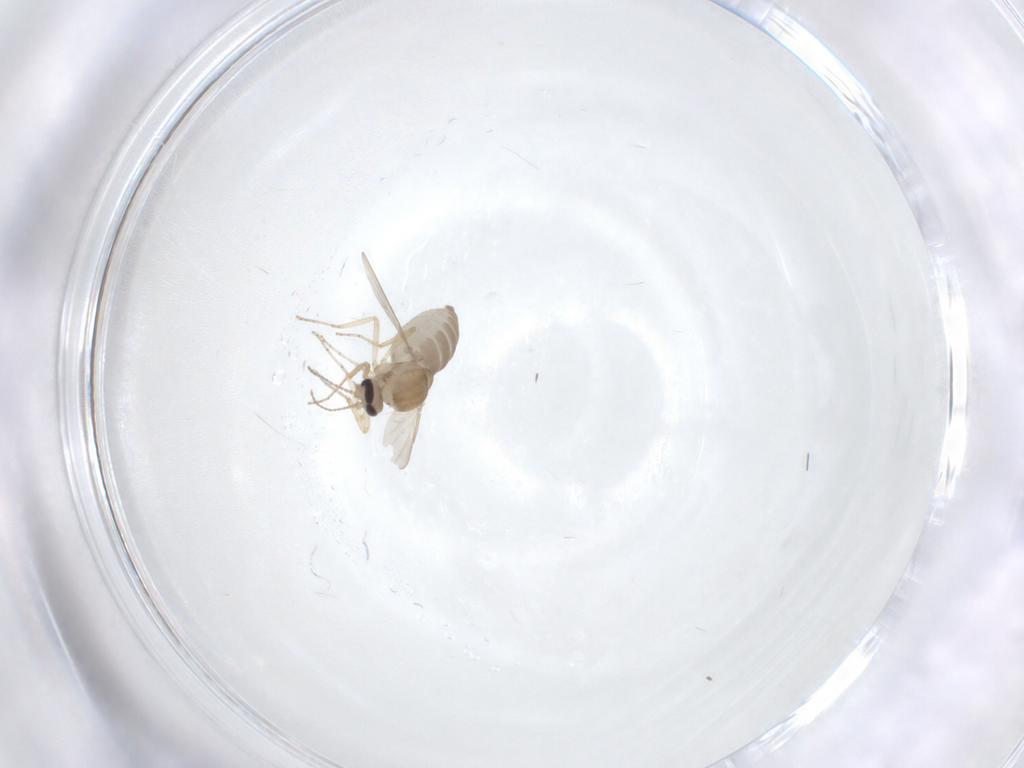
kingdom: Animalia
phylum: Arthropoda
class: Insecta
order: Diptera
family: Ceratopogonidae
